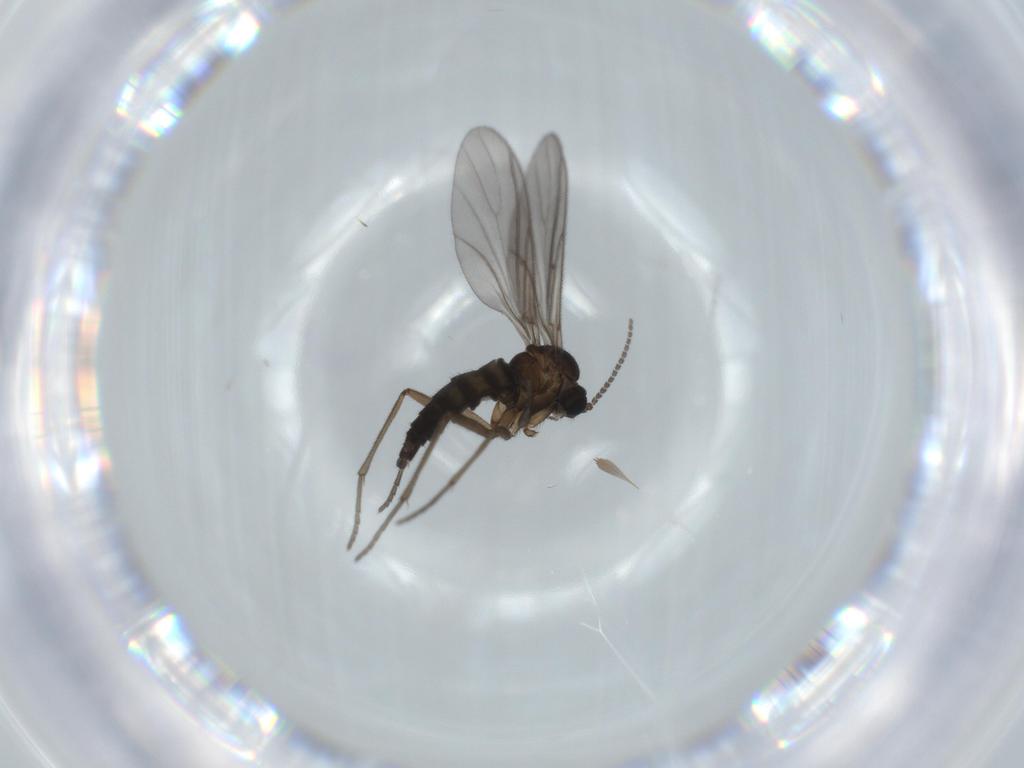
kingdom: Animalia
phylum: Arthropoda
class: Insecta
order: Diptera
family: Sciaridae
